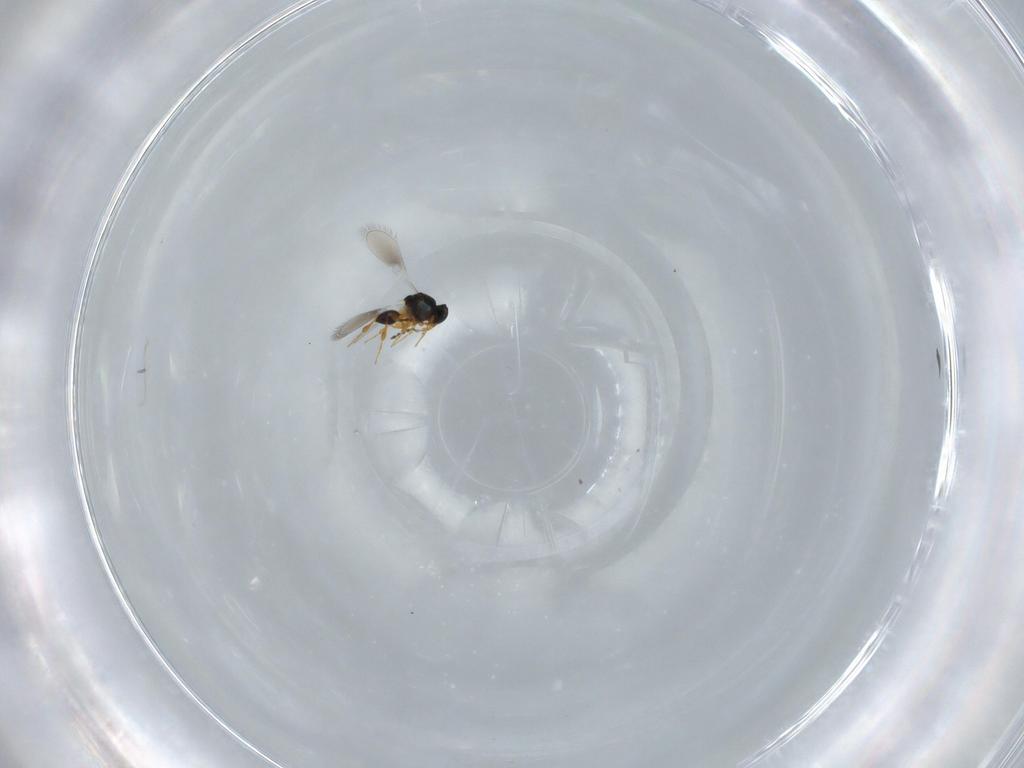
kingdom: Animalia
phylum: Arthropoda
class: Insecta
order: Hymenoptera
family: Platygastridae
